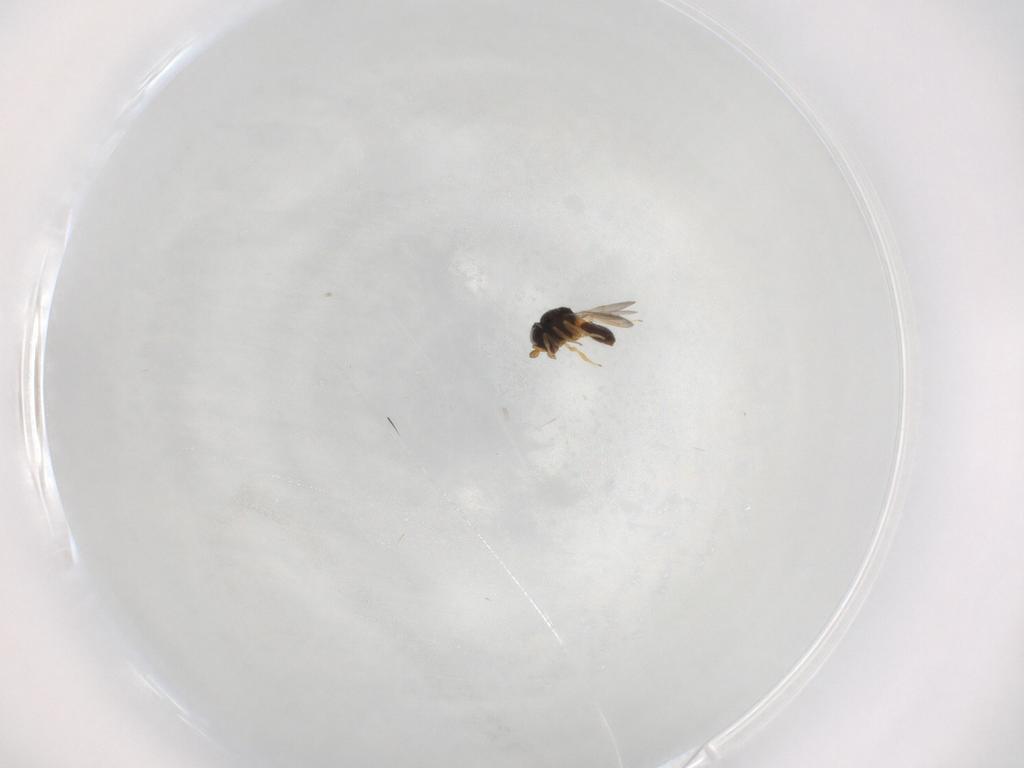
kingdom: Animalia
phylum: Arthropoda
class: Insecta
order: Hymenoptera
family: Scelionidae
